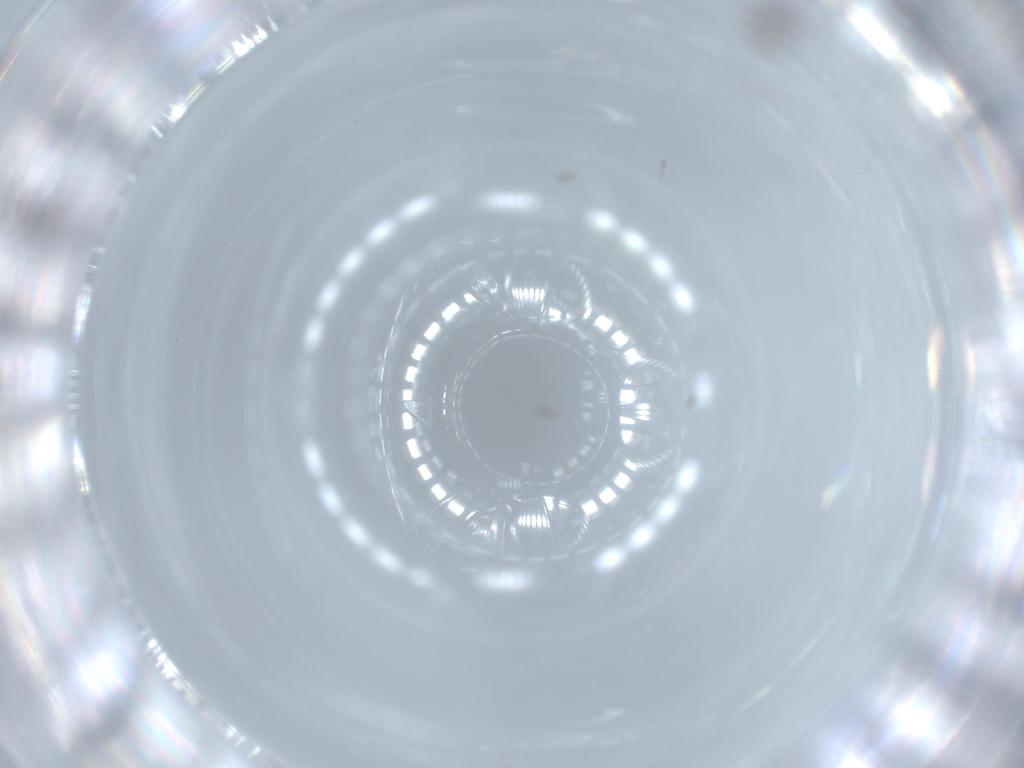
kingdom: Animalia
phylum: Arthropoda
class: Insecta
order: Diptera
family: Cecidomyiidae
